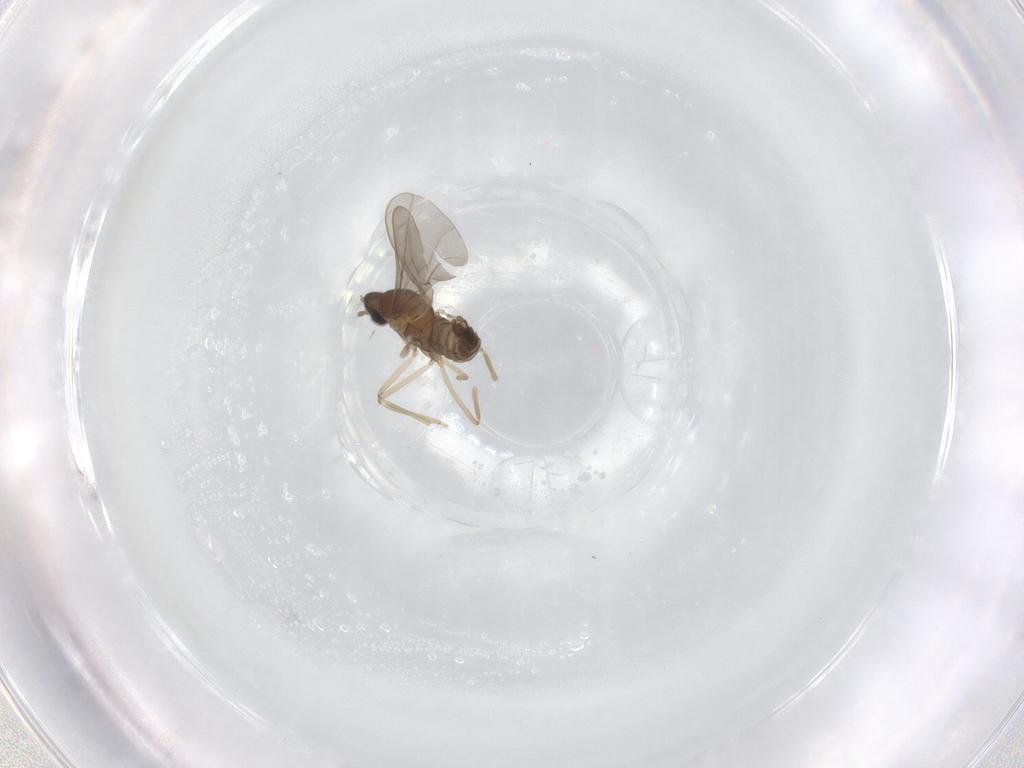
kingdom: Animalia
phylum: Arthropoda
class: Insecta
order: Diptera
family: Cecidomyiidae
